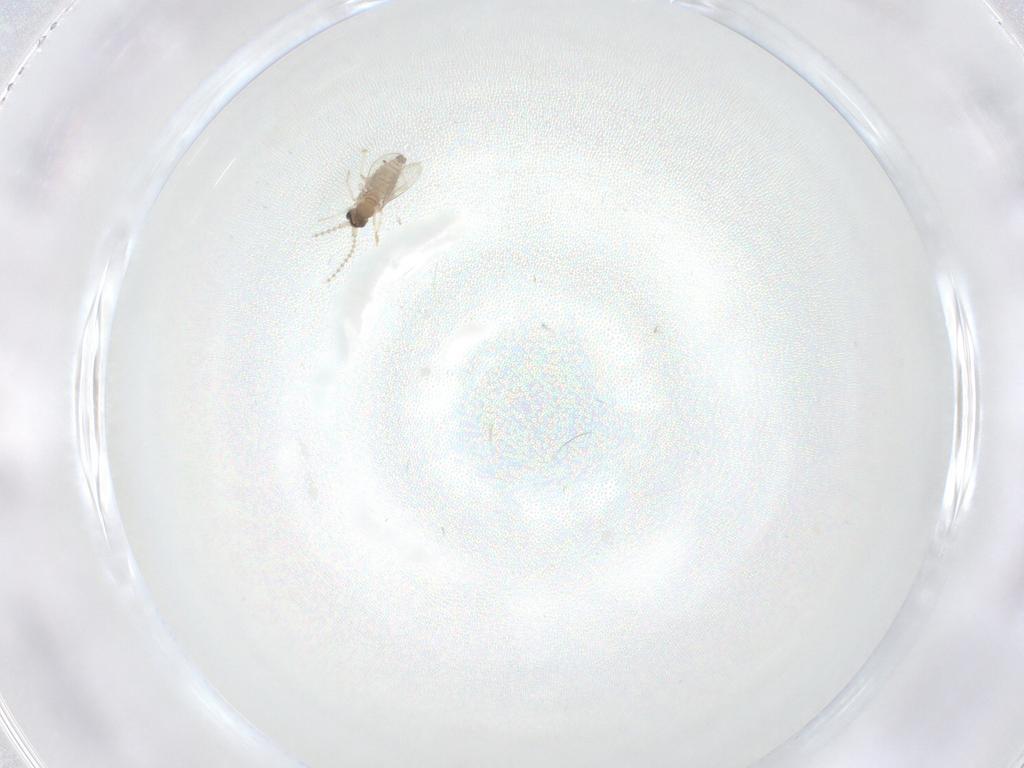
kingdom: Animalia
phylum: Arthropoda
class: Insecta
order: Diptera
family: Cecidomyiidae
